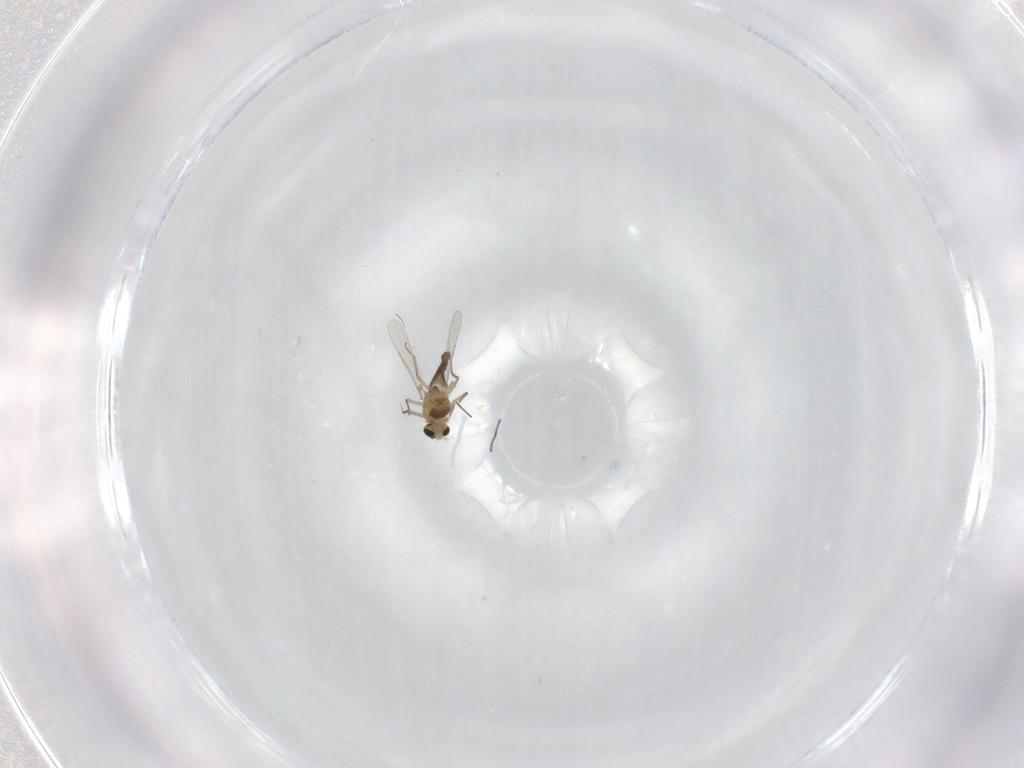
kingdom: Animalia
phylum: Arthropoda
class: Insecta
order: Diptera
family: Chironomidae
